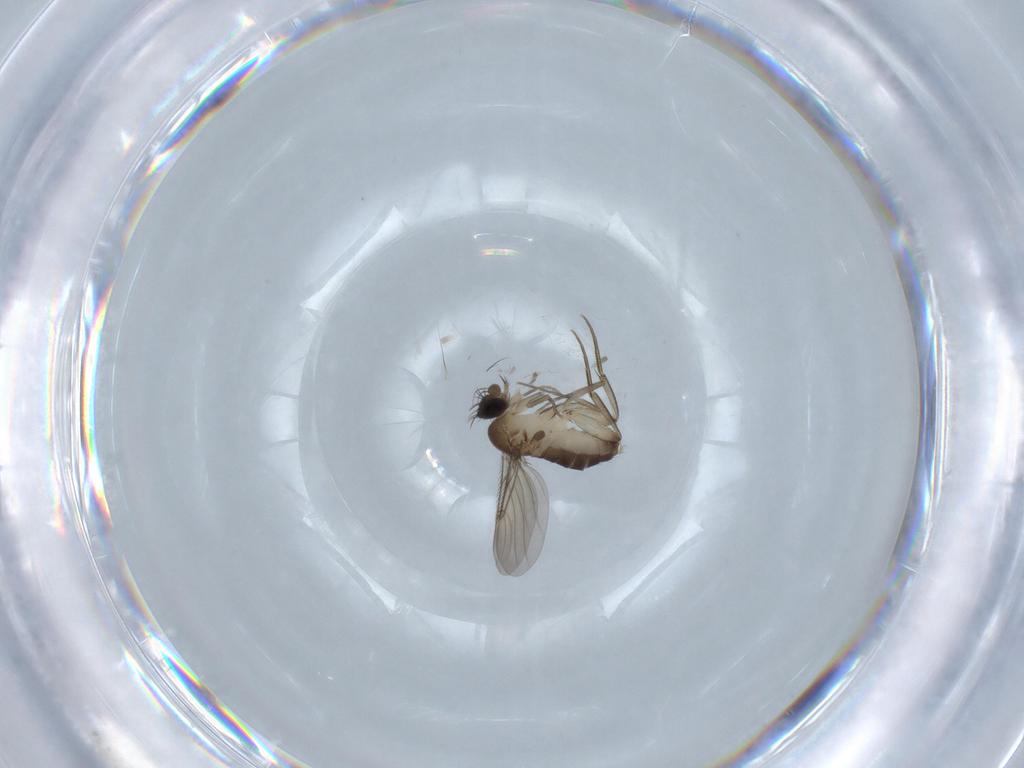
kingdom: Animalia
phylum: Arthropoda
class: Insecta
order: Diptera
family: Phoridae
